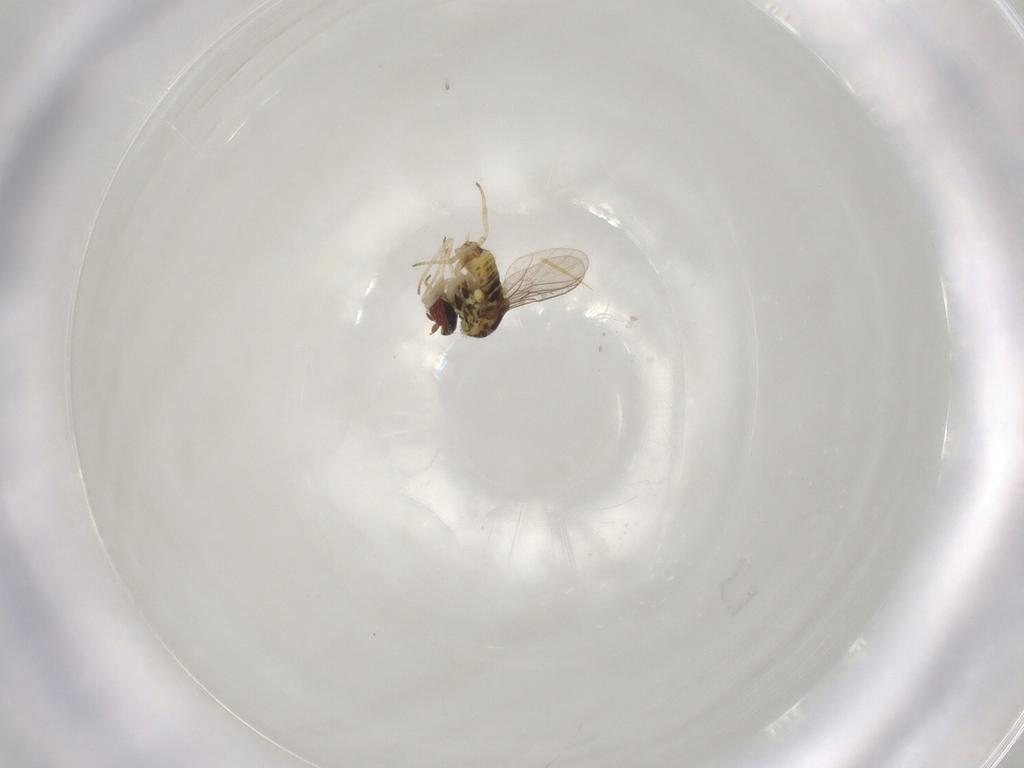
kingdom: Animalia
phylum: Arthropoda
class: Insecta
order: Diptera
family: Bombyliidae
